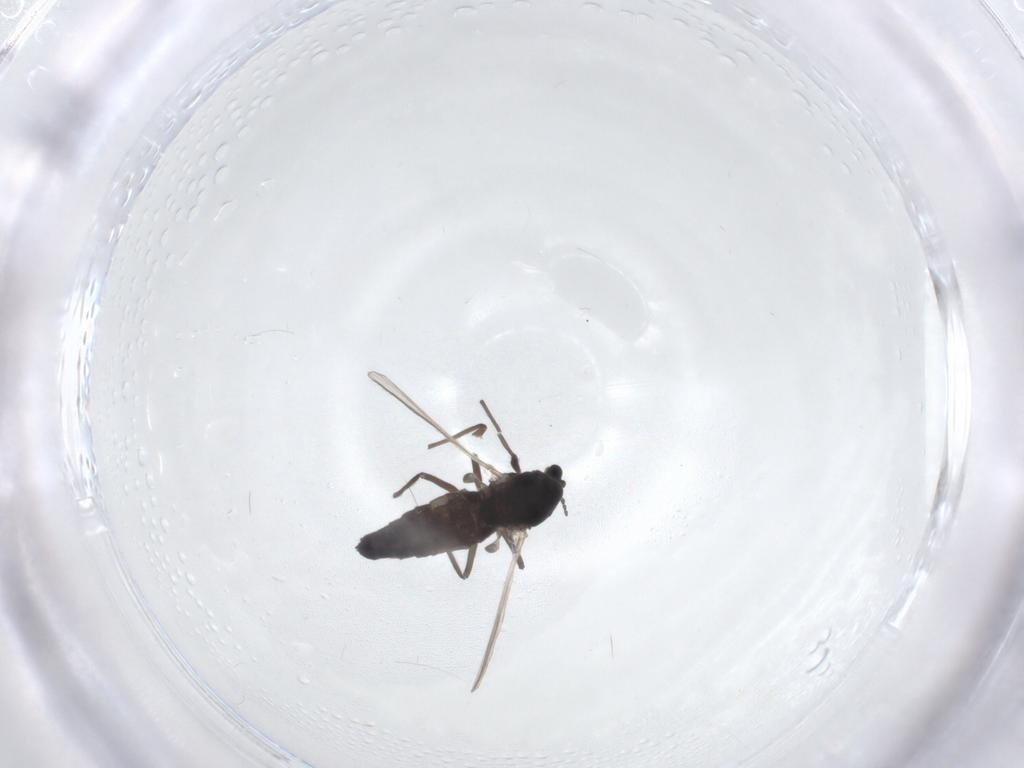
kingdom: Animalia
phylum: Arthropoda
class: Insecta
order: Diptera
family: Chironomidae
